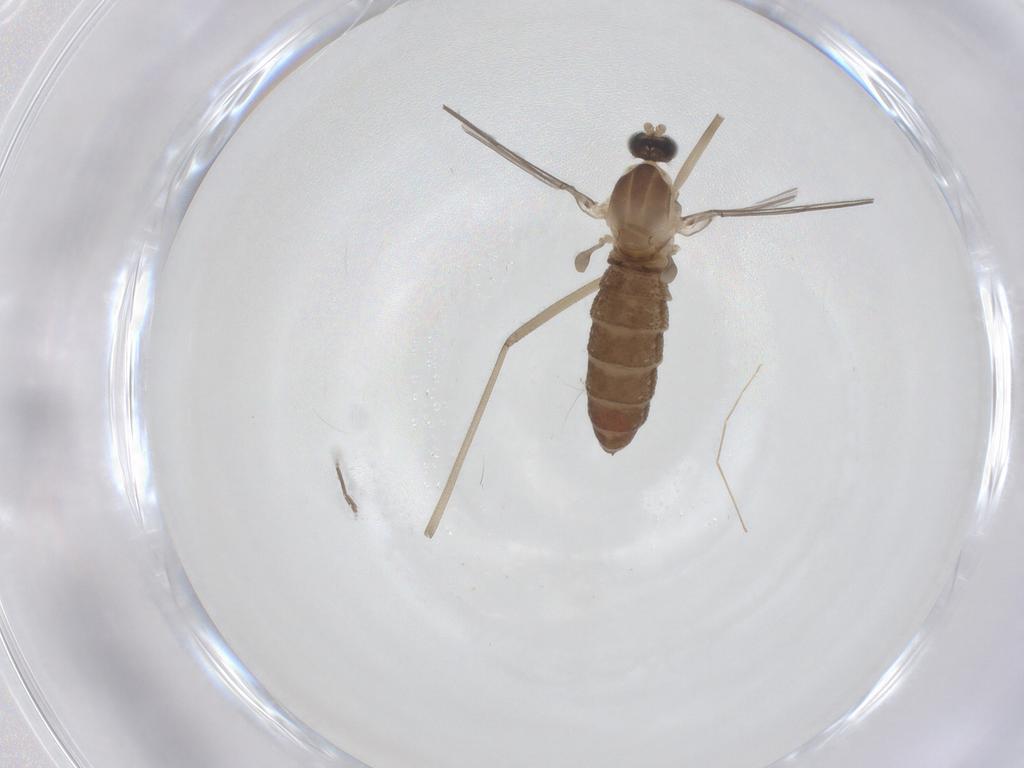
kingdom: Animalia
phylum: Arthropoda
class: Insecta
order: Diptera
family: Cecidomyiidae
